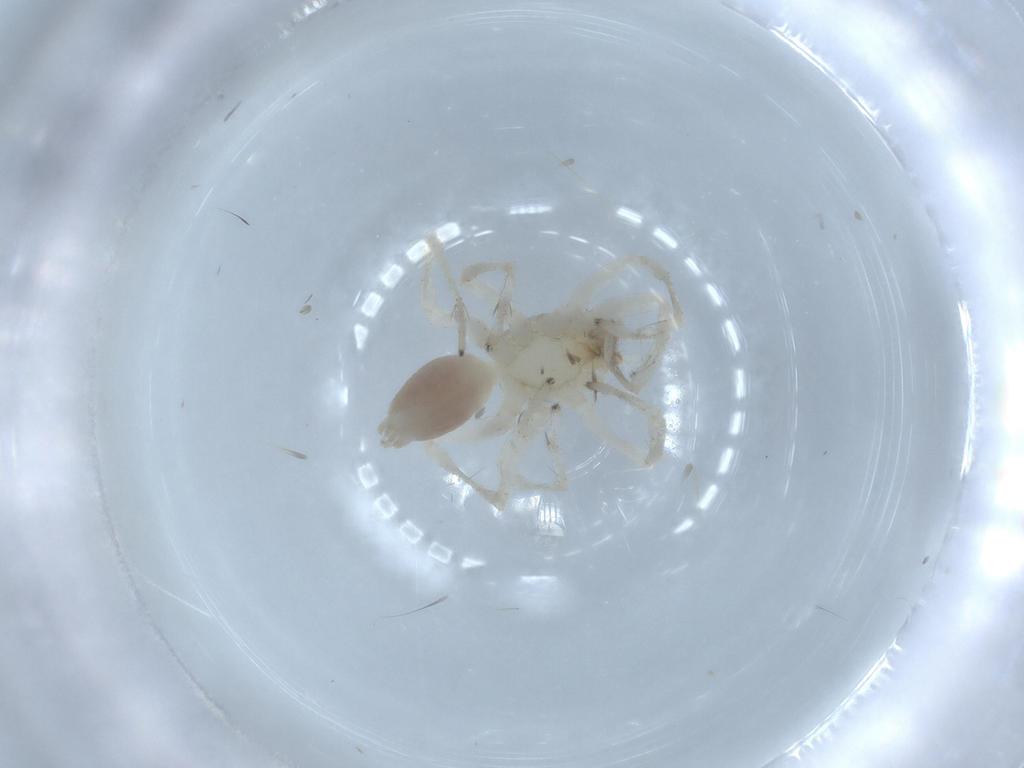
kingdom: Animalia
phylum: Arthropoda
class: Arachnida
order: Araneae
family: Clubionidae
